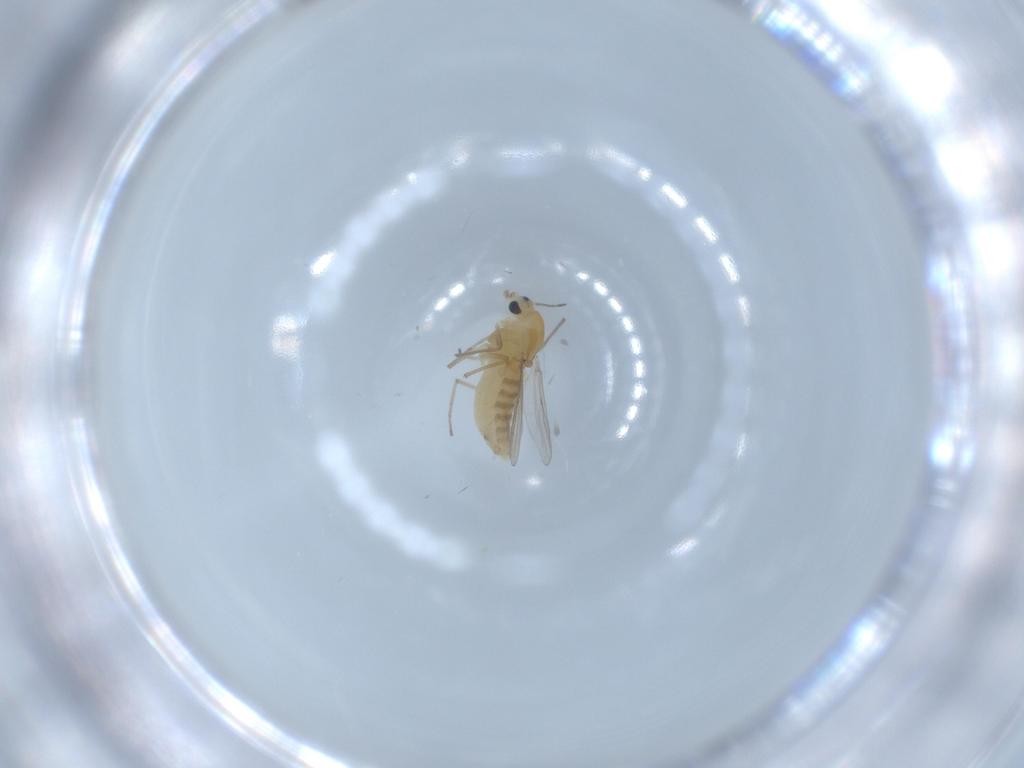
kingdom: Animalia
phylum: Arthropoda
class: Insecta
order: Diptera
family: Chironomidae
